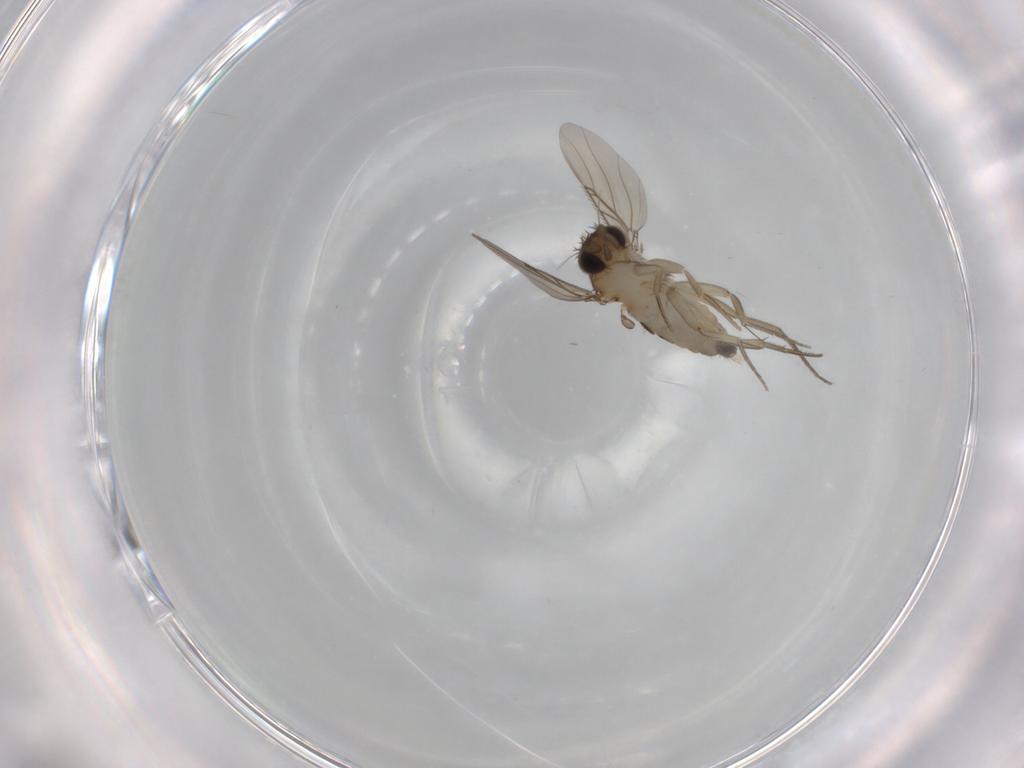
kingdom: Animalia
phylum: Arthropoda
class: Insecta
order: Diptera
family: Phoridae
